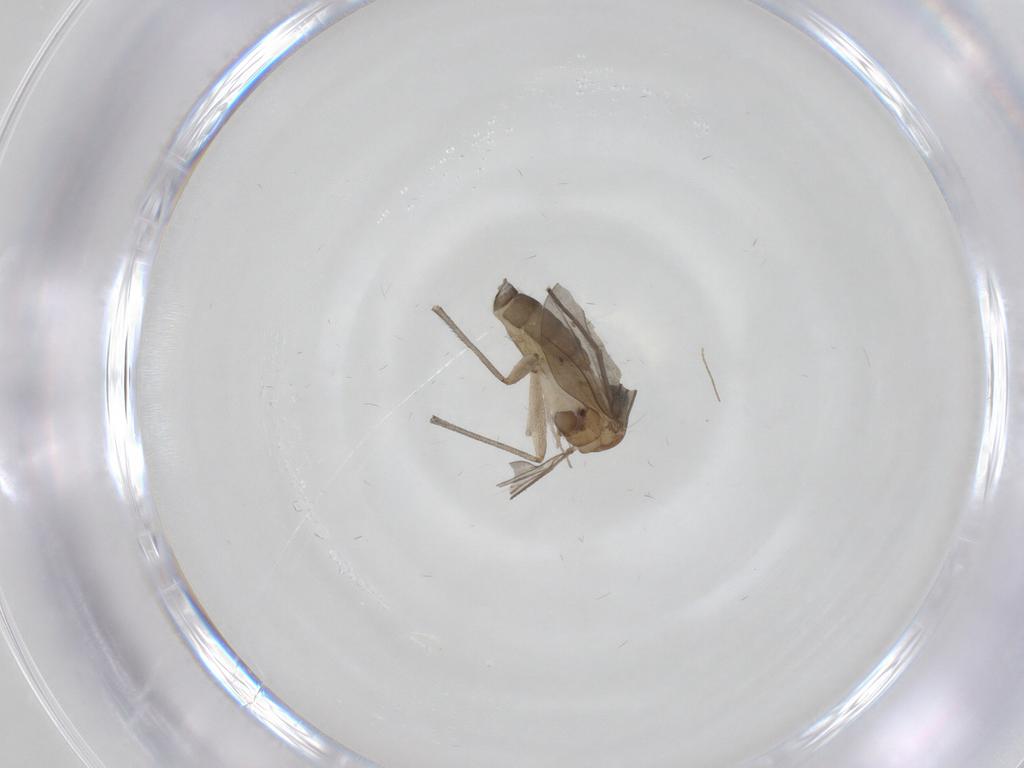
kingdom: Animalia
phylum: Arthropoda
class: Insecta
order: Diptera
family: Sciaridae
